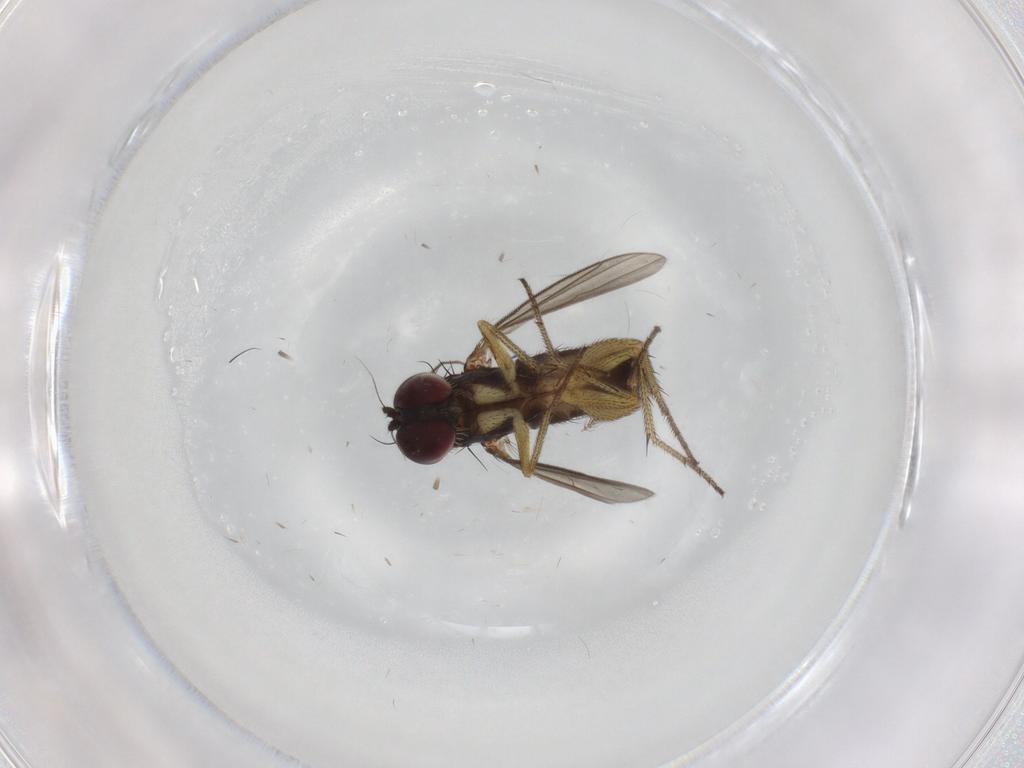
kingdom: Animalia
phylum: Arthropoda
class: Insecta
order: Diptera
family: Dolichopodidae
